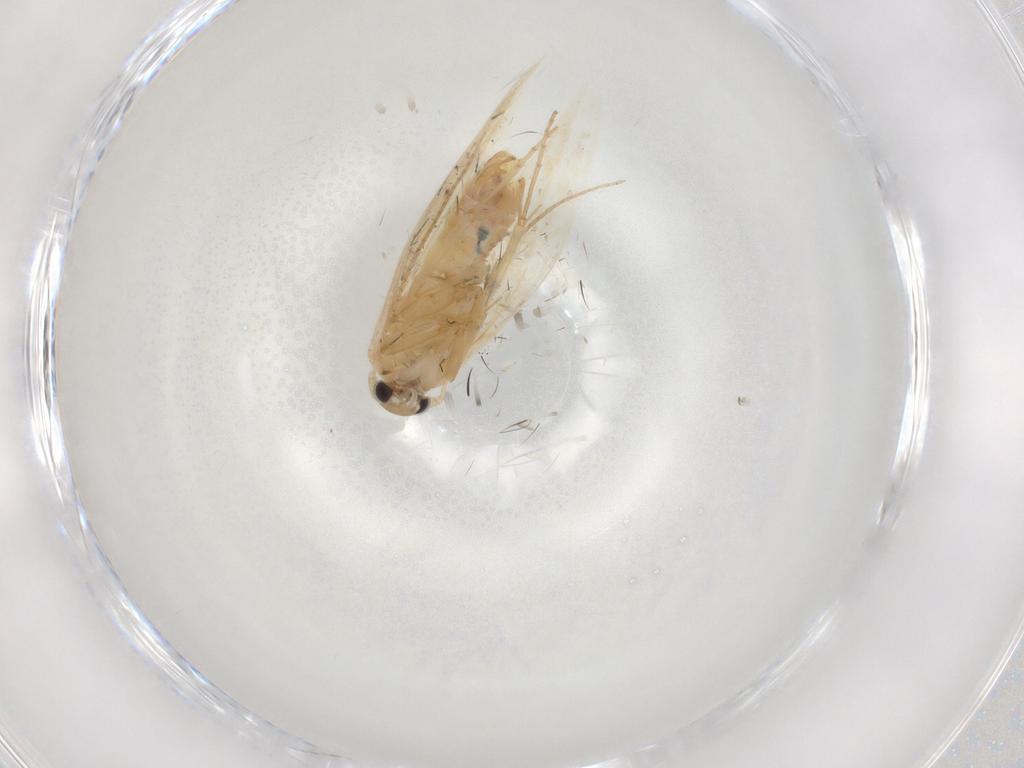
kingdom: Animalia
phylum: Arthropoda
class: Insecta
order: Lepidoptera
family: Bucculatricidae
